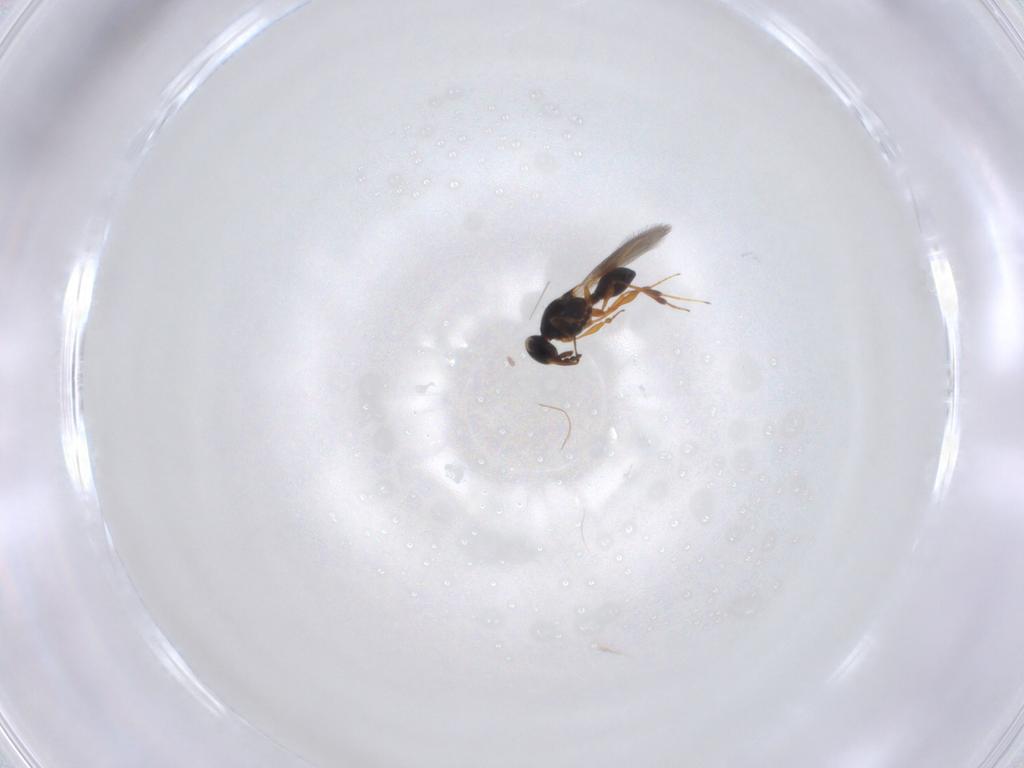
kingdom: Animalia
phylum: Arthropoda
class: Insecta
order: Hymenoptera
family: Platygastridae
